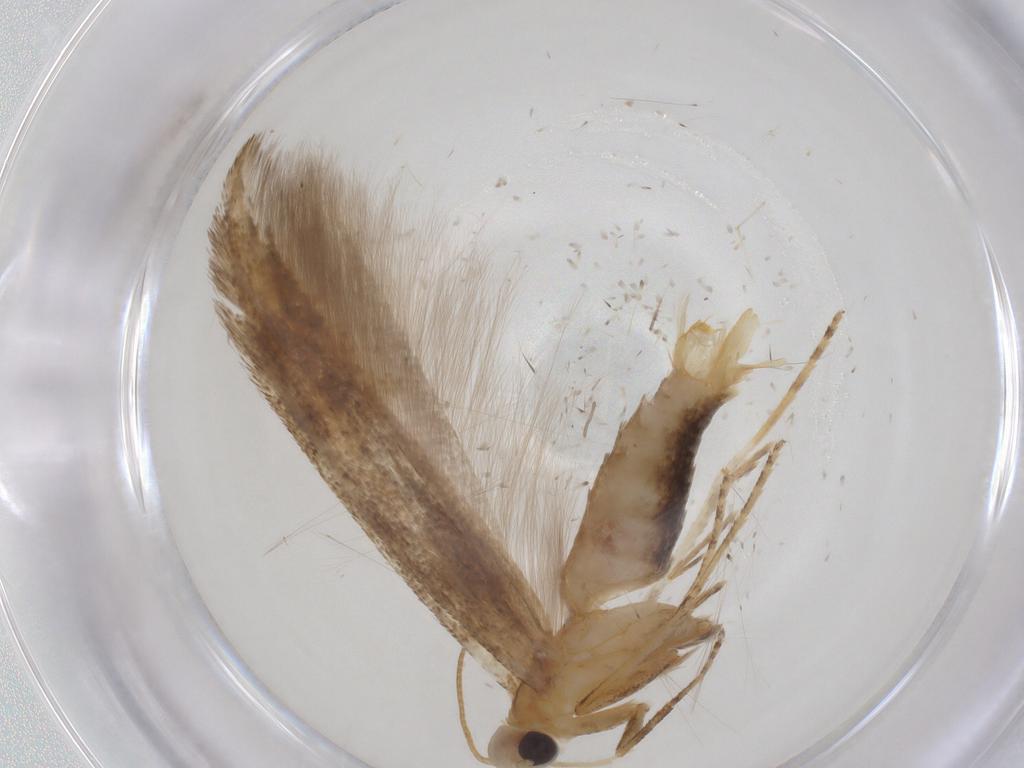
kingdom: Animalia
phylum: Arthropoda
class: Insecta
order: Lepidoptera
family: Batrachedridae
